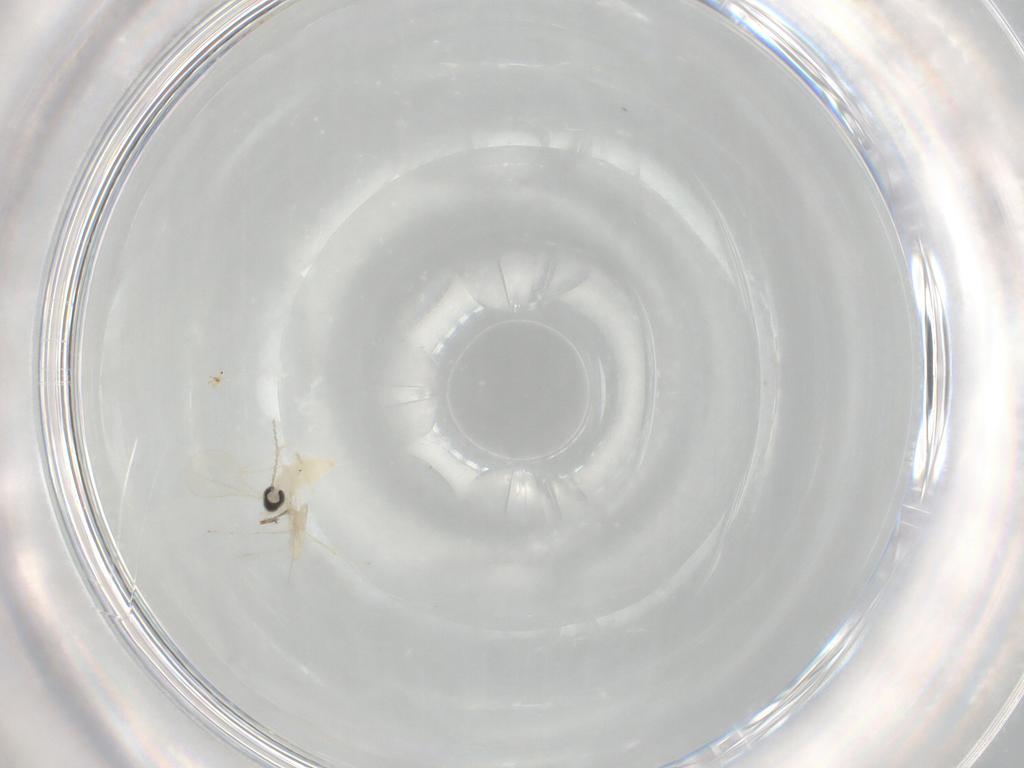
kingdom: Animalia
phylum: Arthropoda
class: Insecta
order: Diptera
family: Cecidomyiidae
